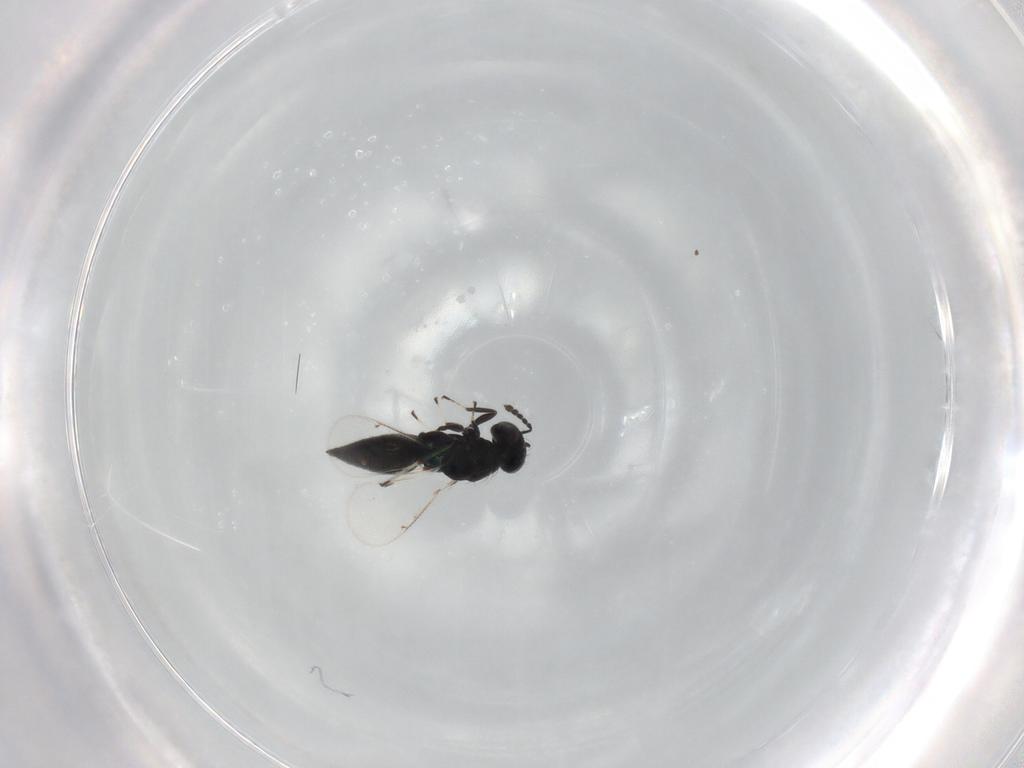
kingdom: Animalia
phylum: Arthropoda
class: Insecta
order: Hymenoptera
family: Eulophidae
